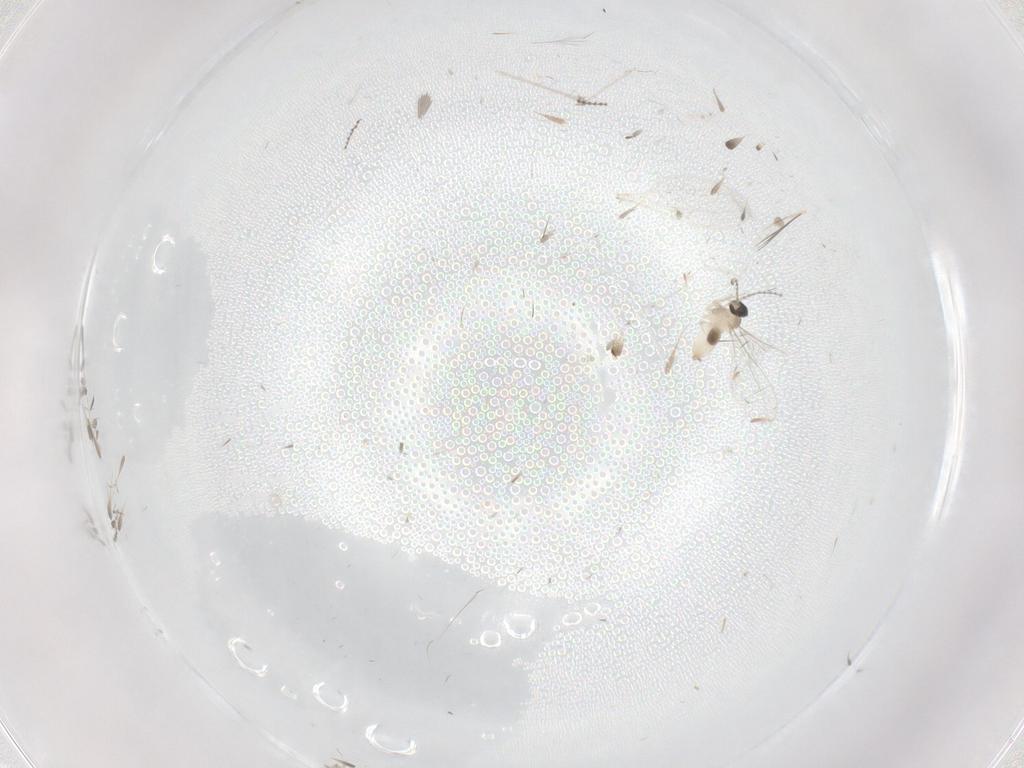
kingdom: Animalia
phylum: Arthropoda
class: Insecta
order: Diptera
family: Cecidomyiidae
